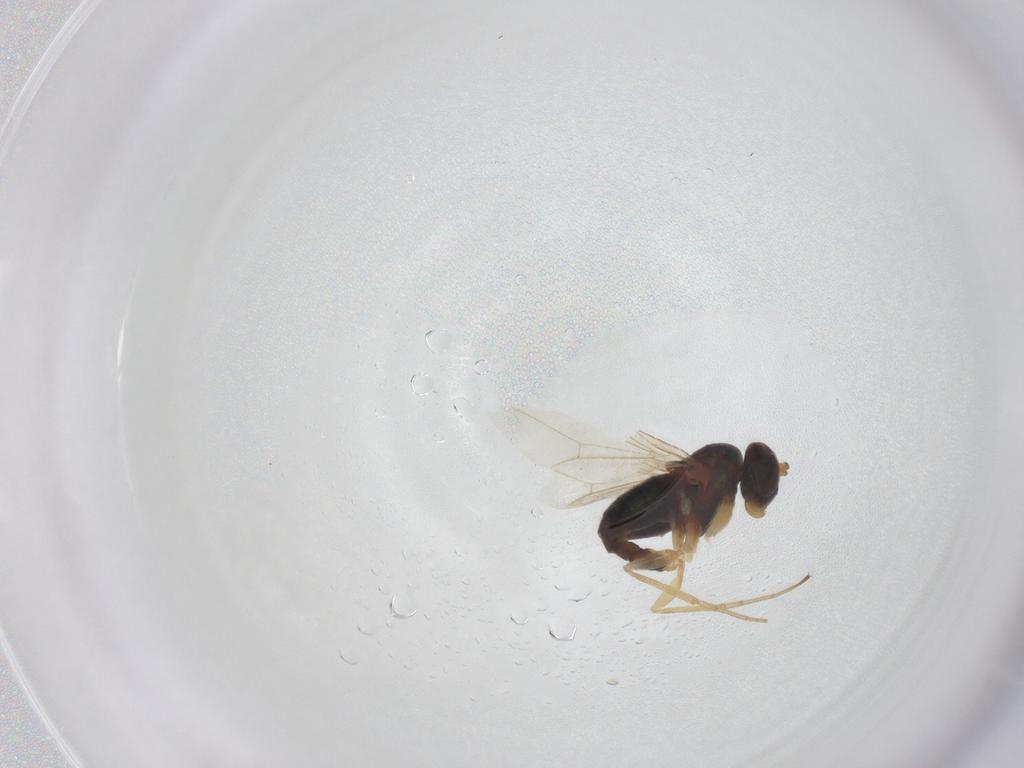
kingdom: Animalia
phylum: Arthropoda
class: Insecta
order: Diptera
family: Dolichopodidae
